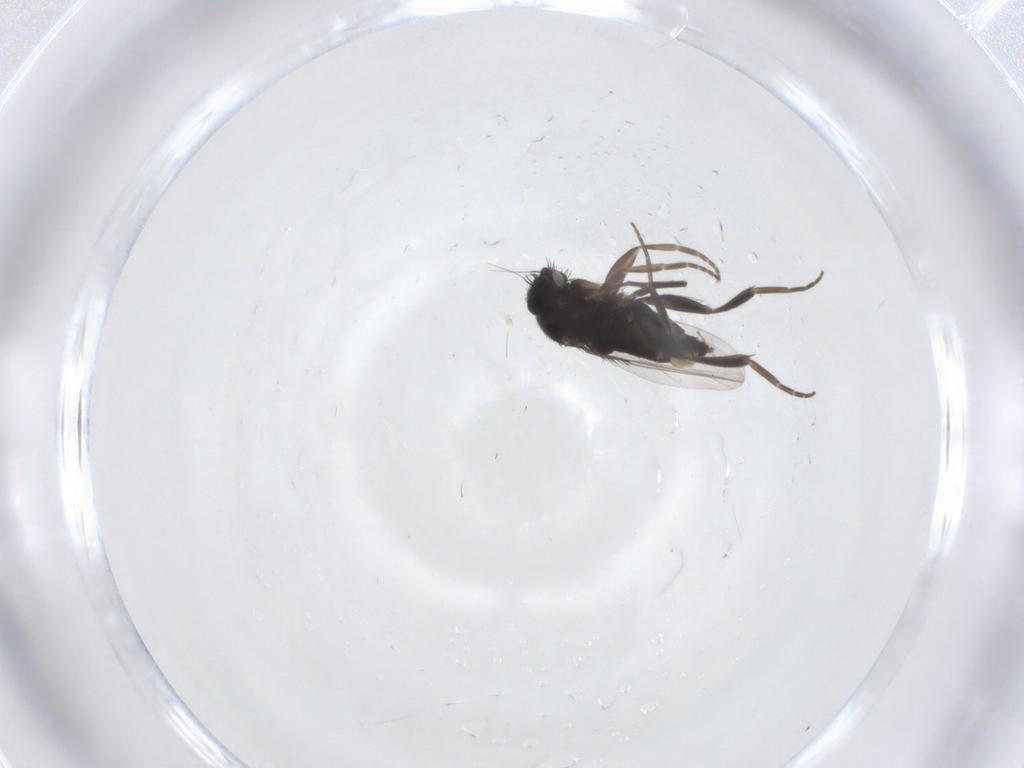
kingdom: Animalia
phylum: Arthropoda
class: Insecta
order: Diptera
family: Phoridae
